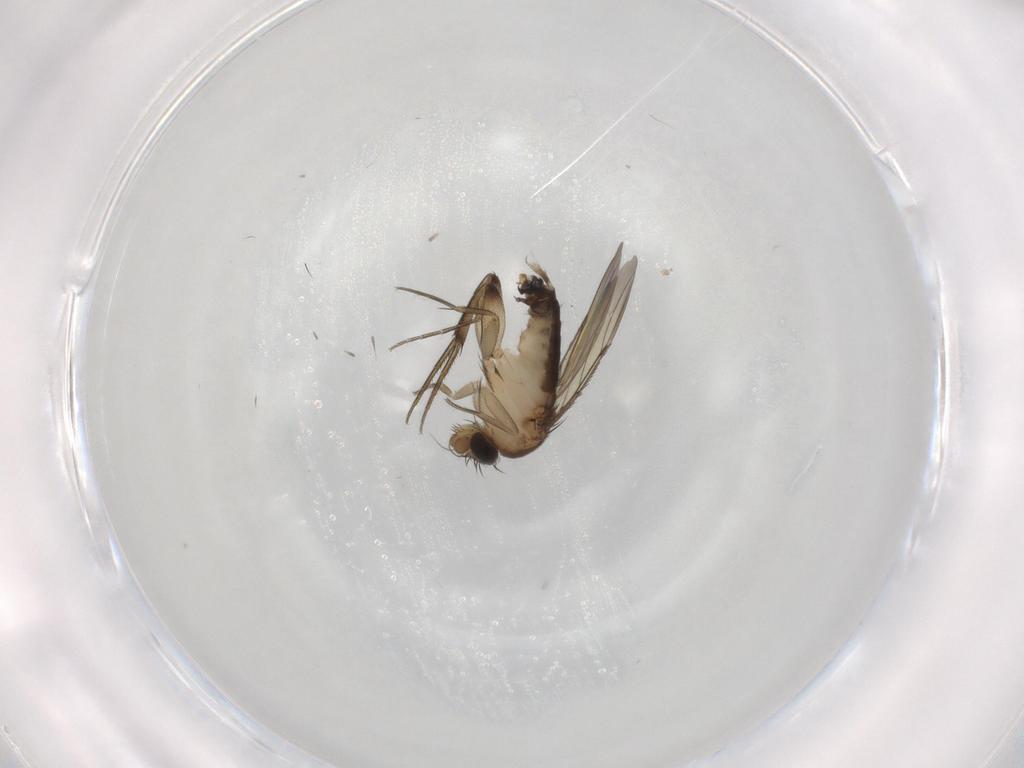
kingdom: Animalia
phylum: Arthropoda
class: Insecta
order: Diptera
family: Phoridae
